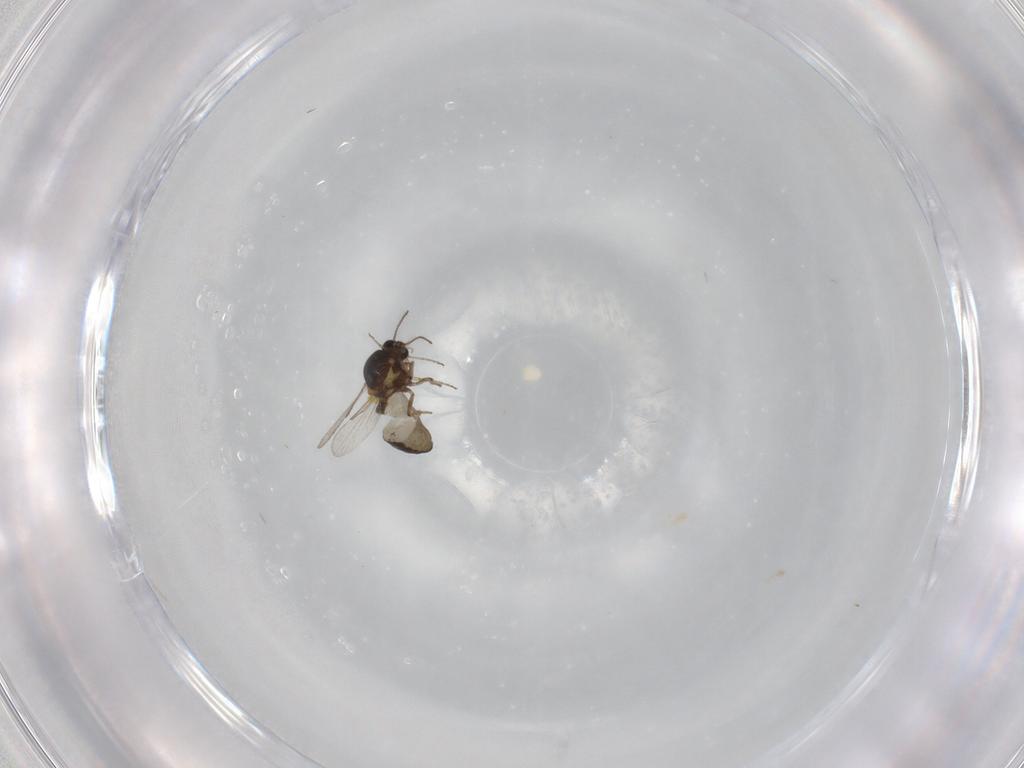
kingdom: Animalia
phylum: Arthropoda
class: Insecta
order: Diptera
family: Ceratopogonidae
